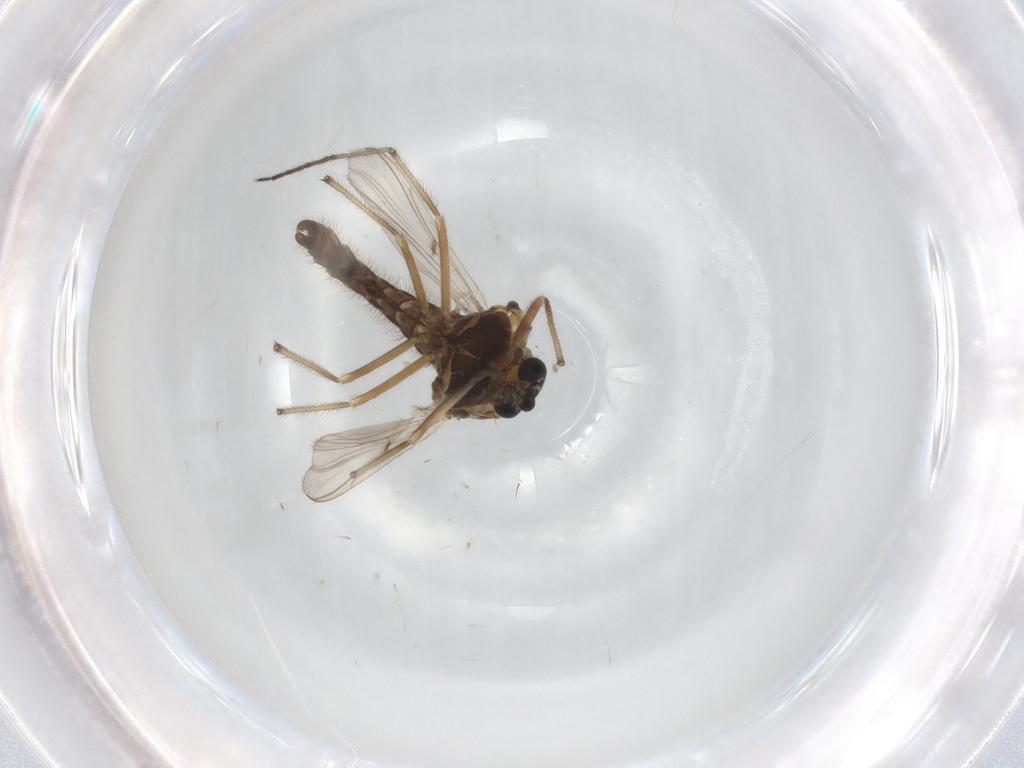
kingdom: Animalia
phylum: Arthropoda
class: Insecta
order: Diptera
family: Chironomidae
